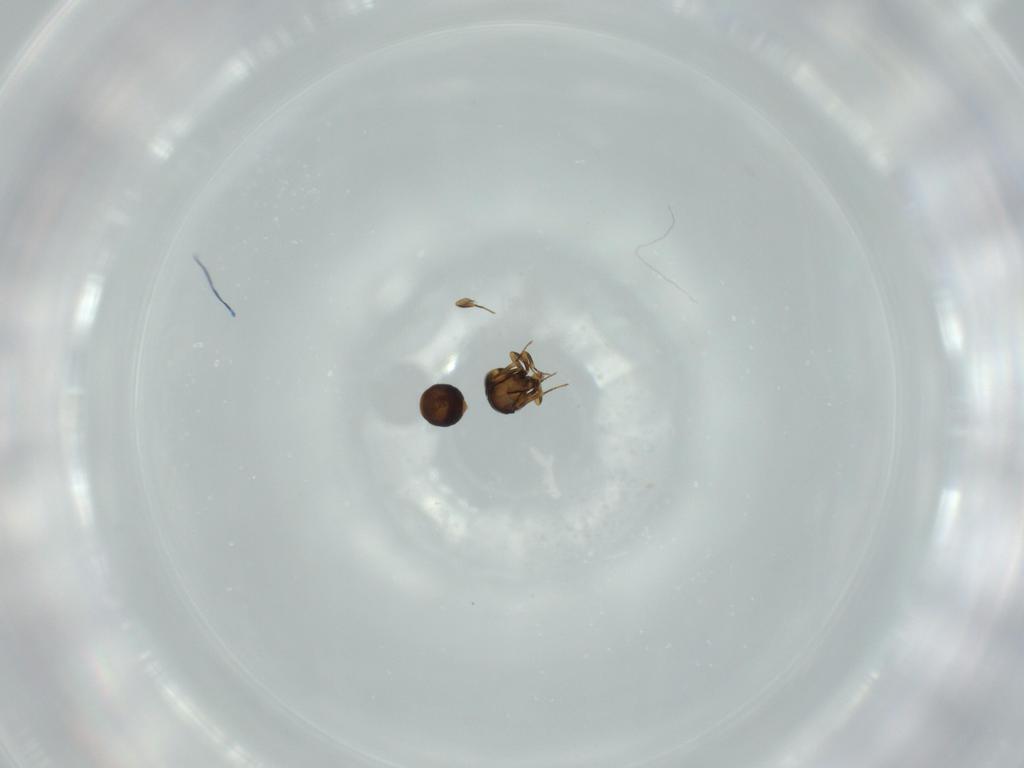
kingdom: Animalia
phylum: Arthropoda
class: Insecta
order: Hymenoptera
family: Scelionidae
